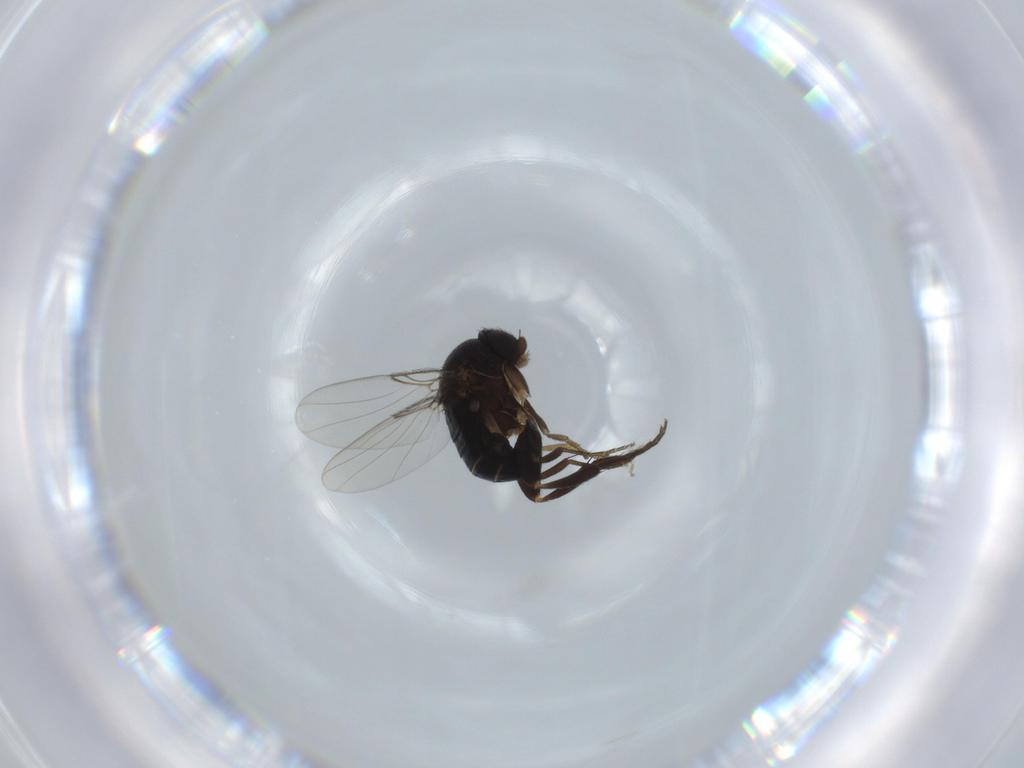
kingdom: Animalia
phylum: Arthropoda
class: Insecta
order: Diptera
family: Phoridae
